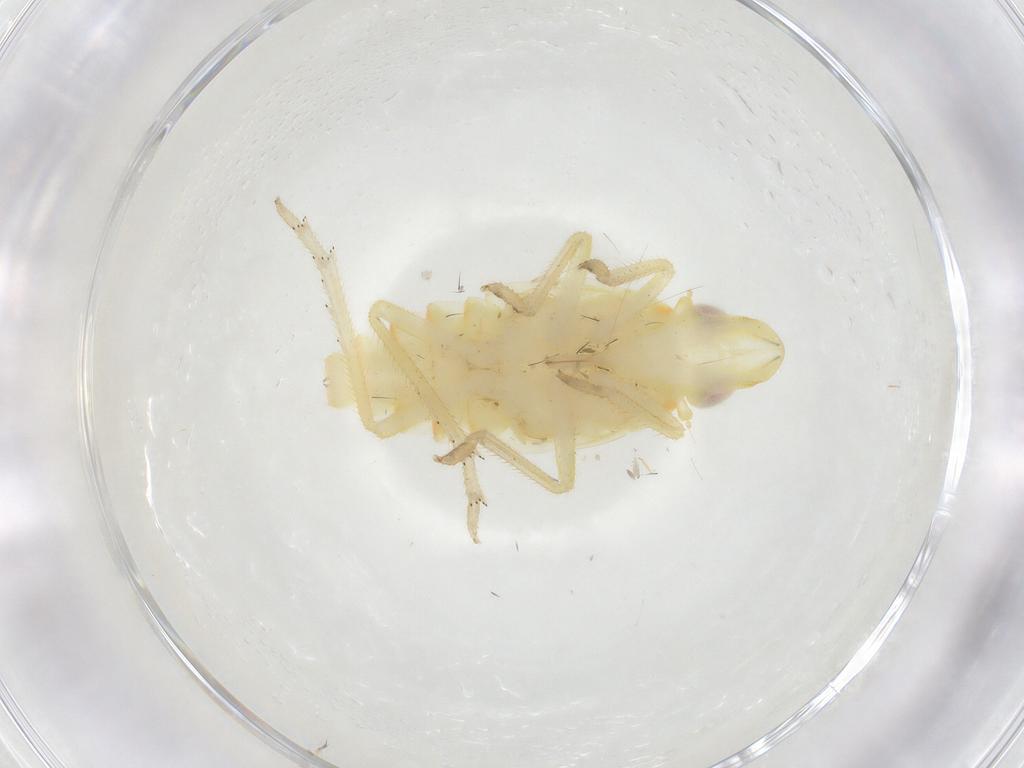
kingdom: Animalia
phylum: Arthropoda
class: Insecta
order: Hemiptera
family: Tropiduchidae
